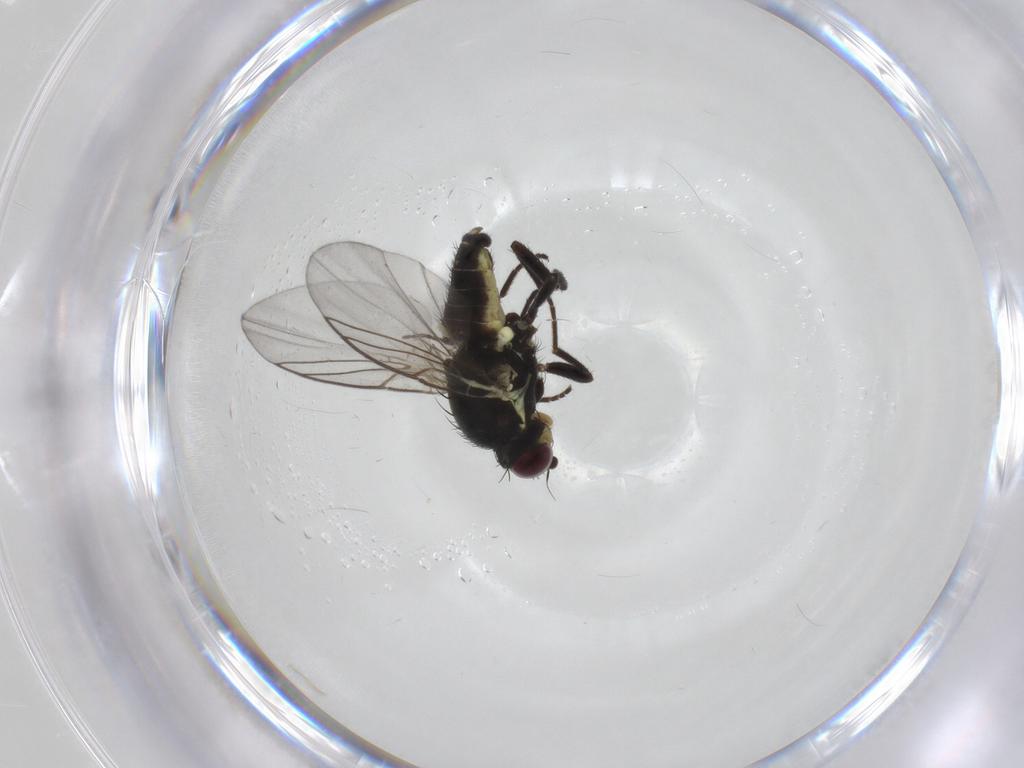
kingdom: Animalia
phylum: Arthropoda
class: Insecta
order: Diptera
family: Agromyzidae
